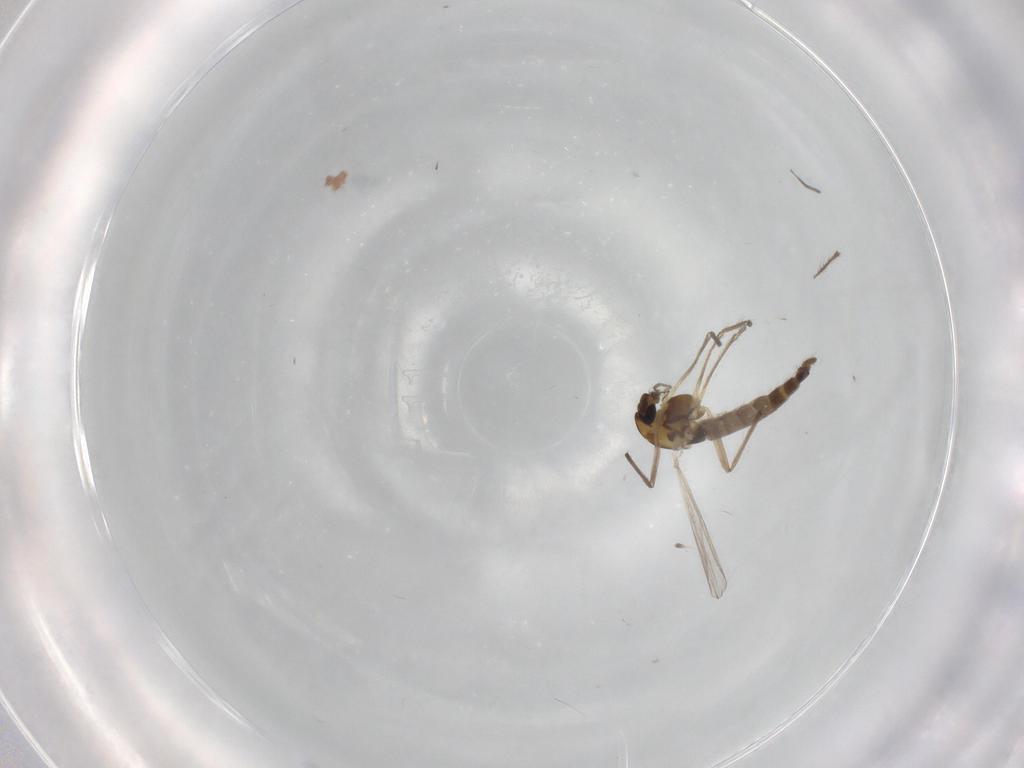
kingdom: Animalia
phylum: Arthropoda
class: Insecta
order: Diptera
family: Chironomidae
